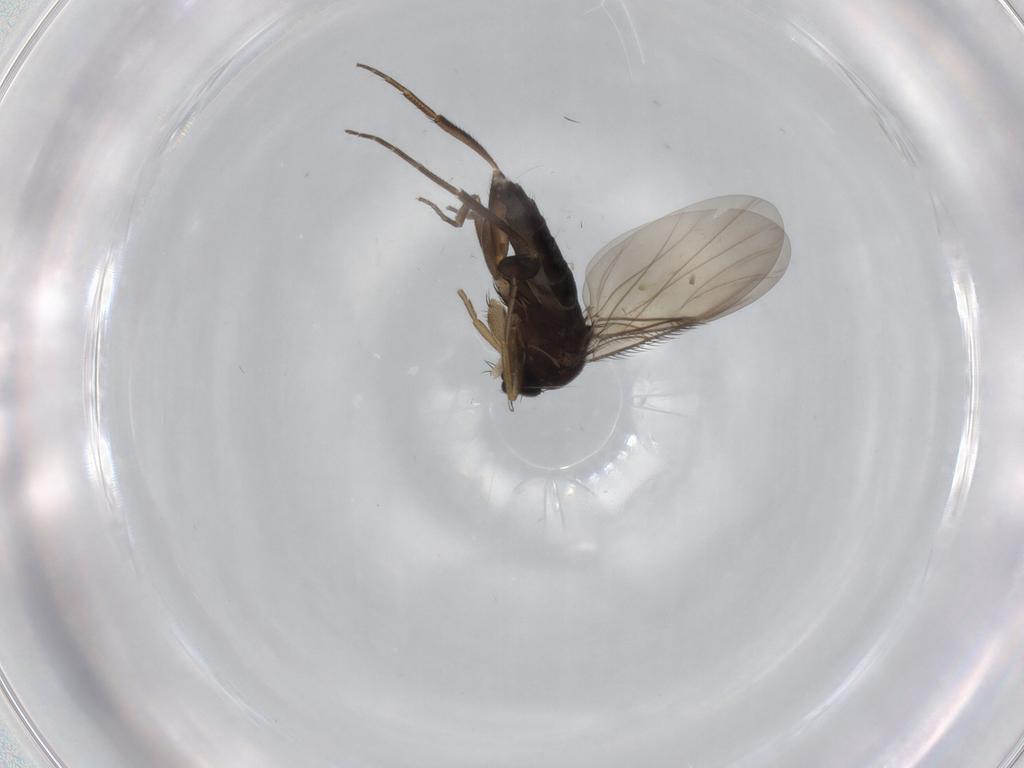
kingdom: Animalia
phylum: Arthropoda
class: Insecta
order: Diptera
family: Phoridae
